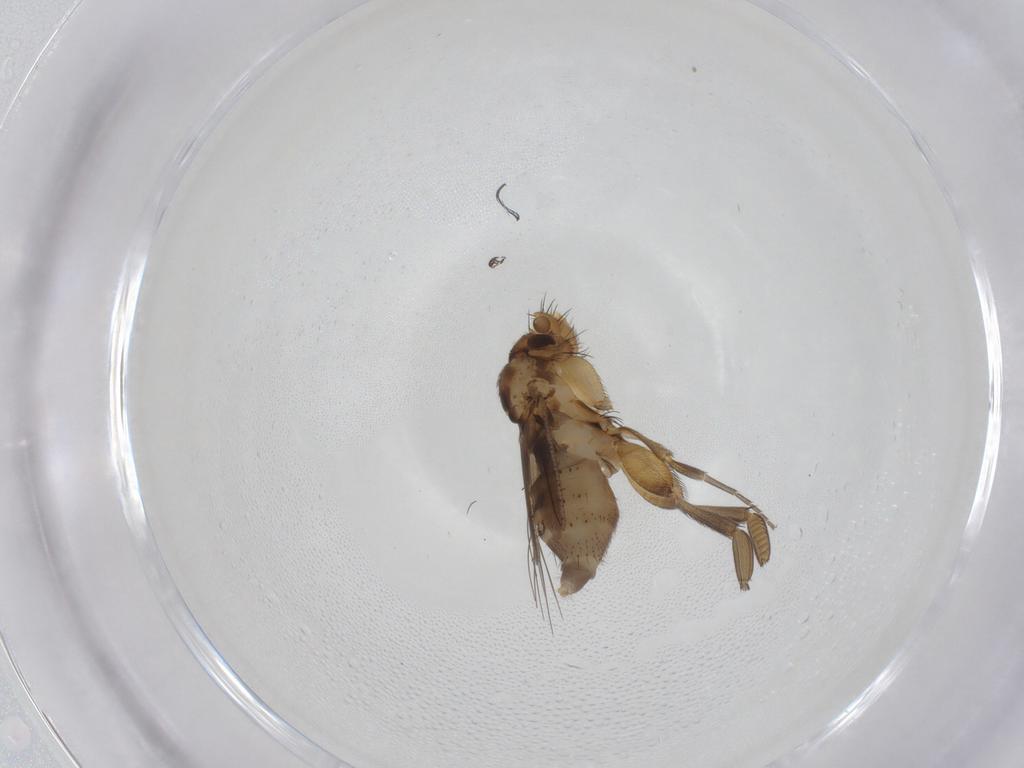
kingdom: Animalia
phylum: Arthropoda
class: Insecta
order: Diptera
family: Phoridae
